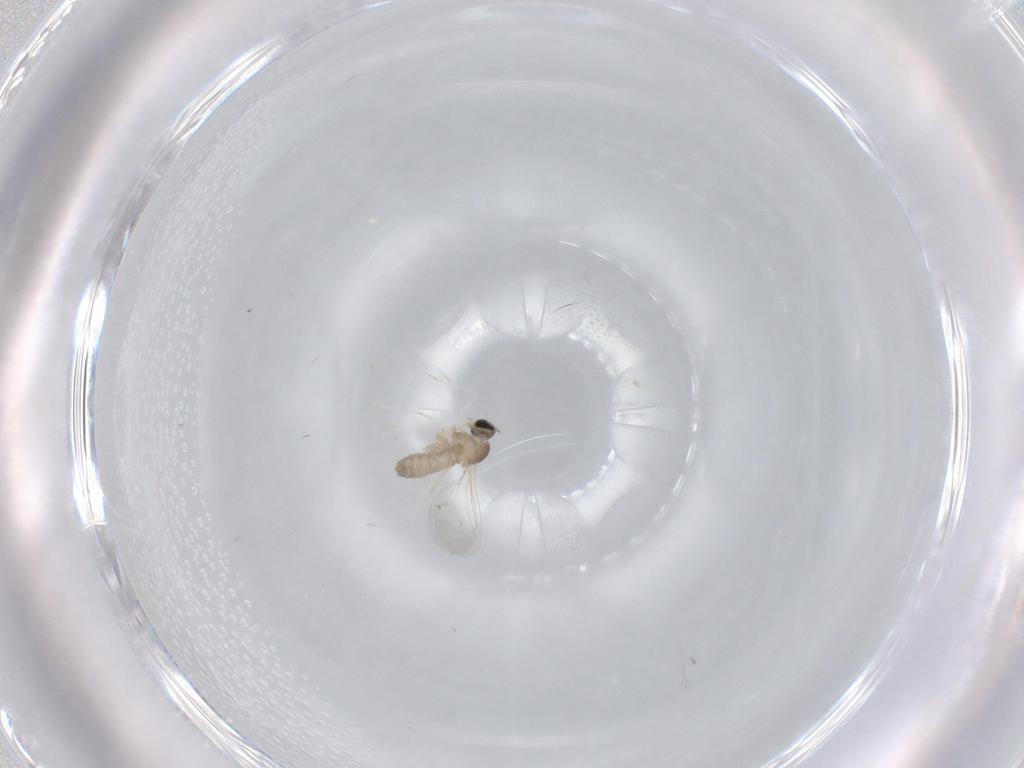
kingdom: Animalia
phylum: Arthropoda
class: Insecta
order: Diptera
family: Cecidomyiidae
